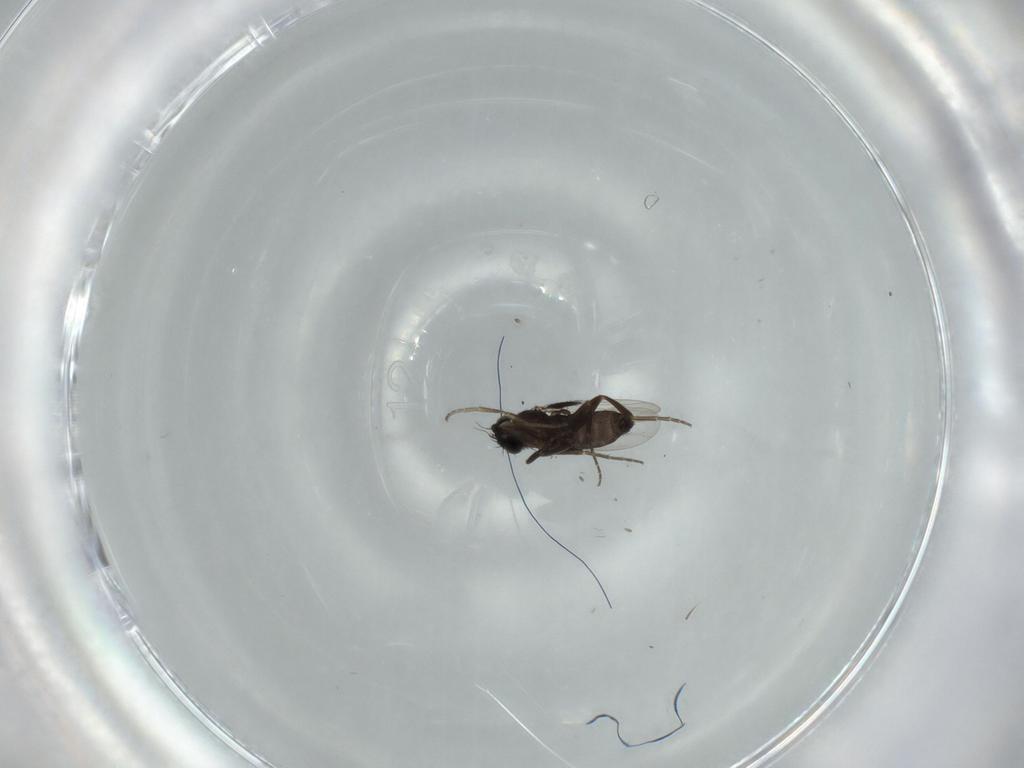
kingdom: Animalia
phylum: Arthropoda
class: Insecta
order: Diptera
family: Phoridae
